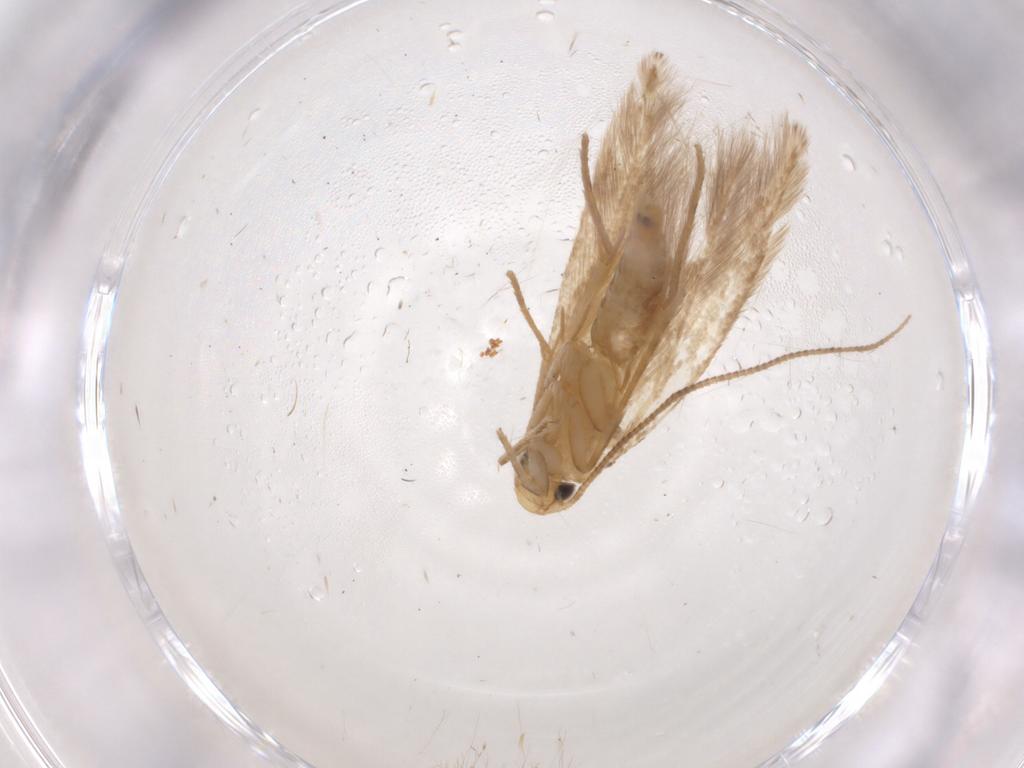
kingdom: Animalia
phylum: Arthropoda
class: Insecta
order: Lepidoptera
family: Tineidae
